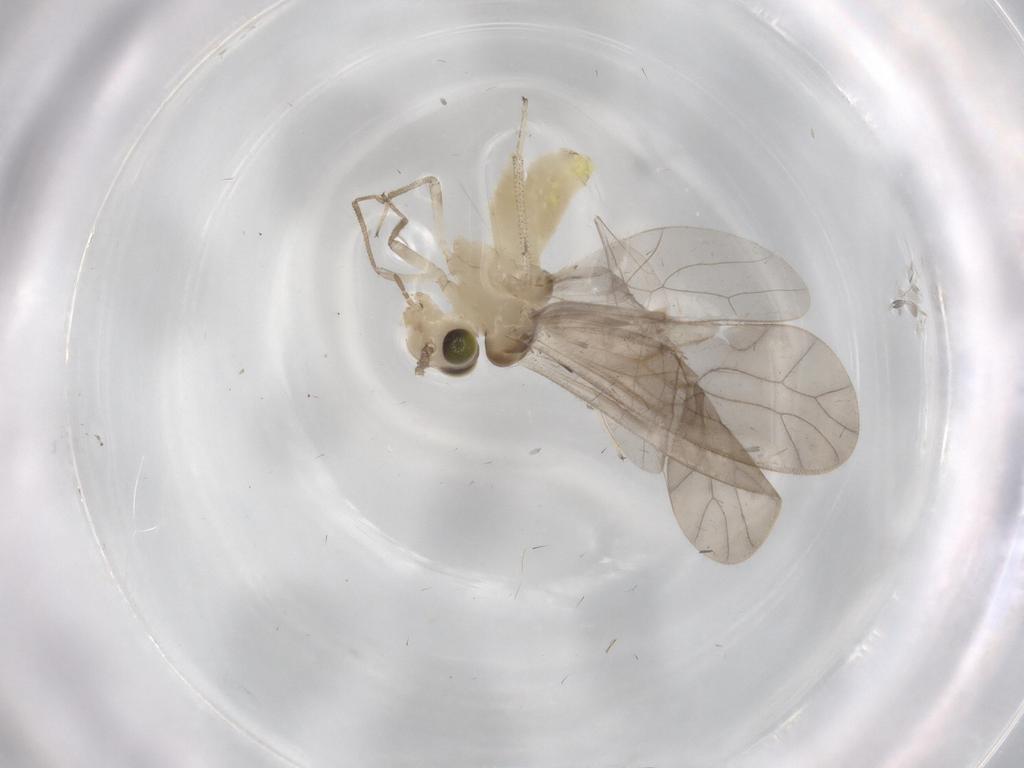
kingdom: Animalia
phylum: Arthropoda
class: Insecta
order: Psocodea
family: Caeciliusidae
